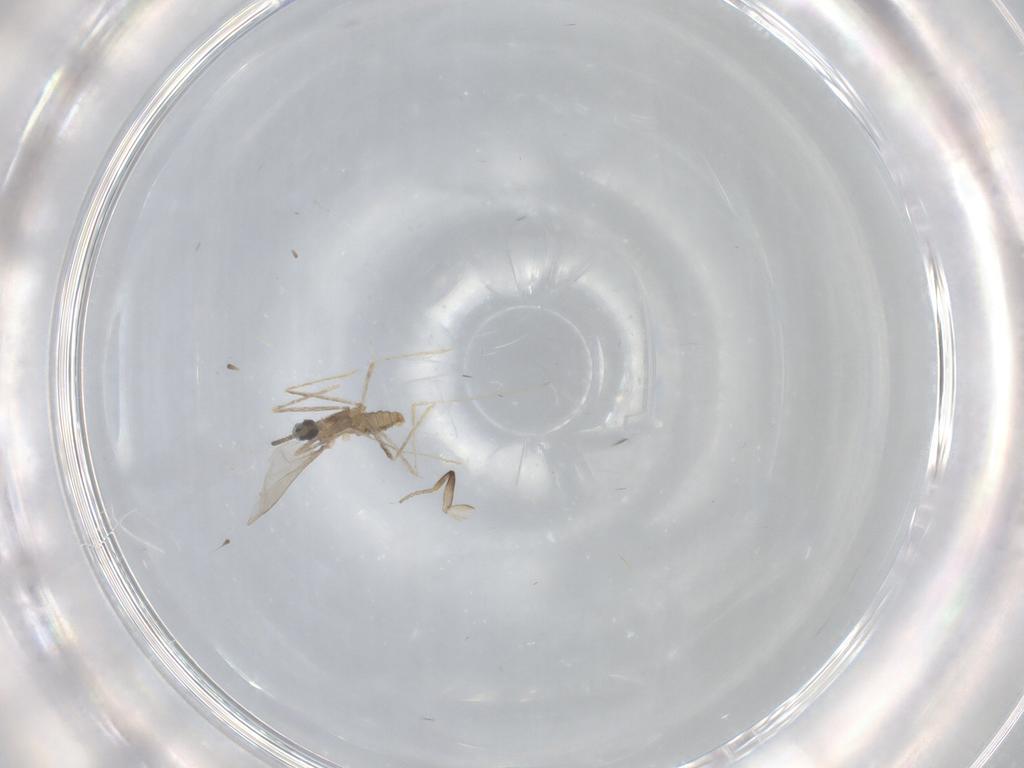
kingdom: Animalia
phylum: Arthropoda
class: Insecta
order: Diptera
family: Cecidomyiidae
